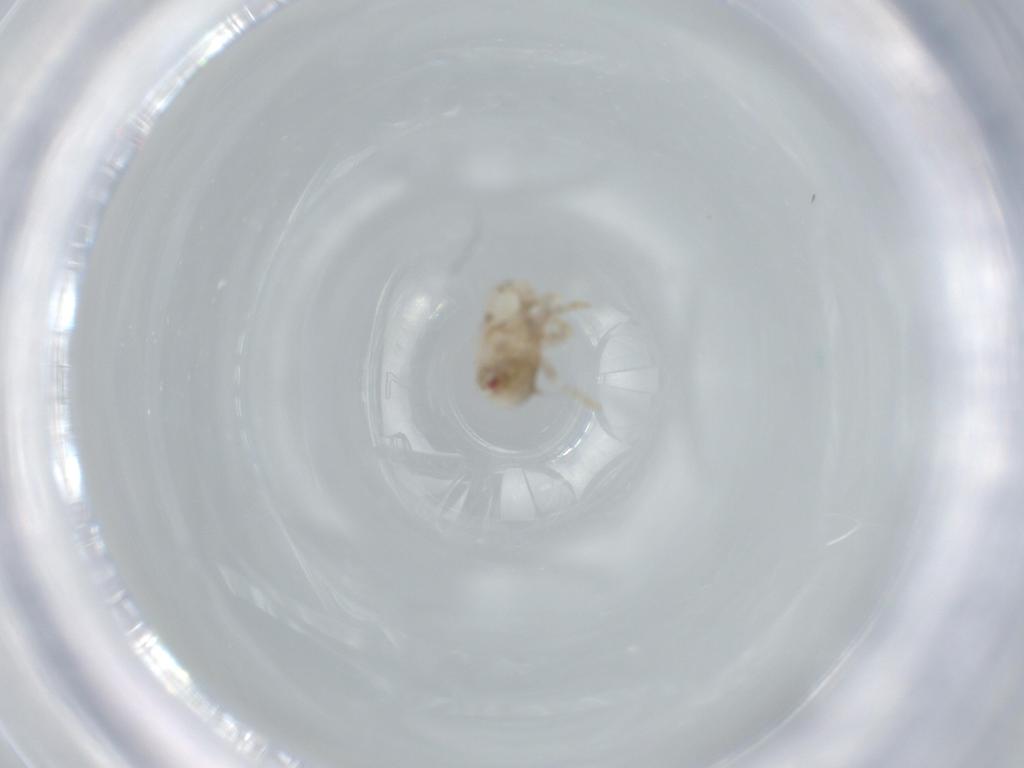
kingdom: Animalia
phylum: Arthropoda
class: Insecta
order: Hemiptera
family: Acanaloniidae
